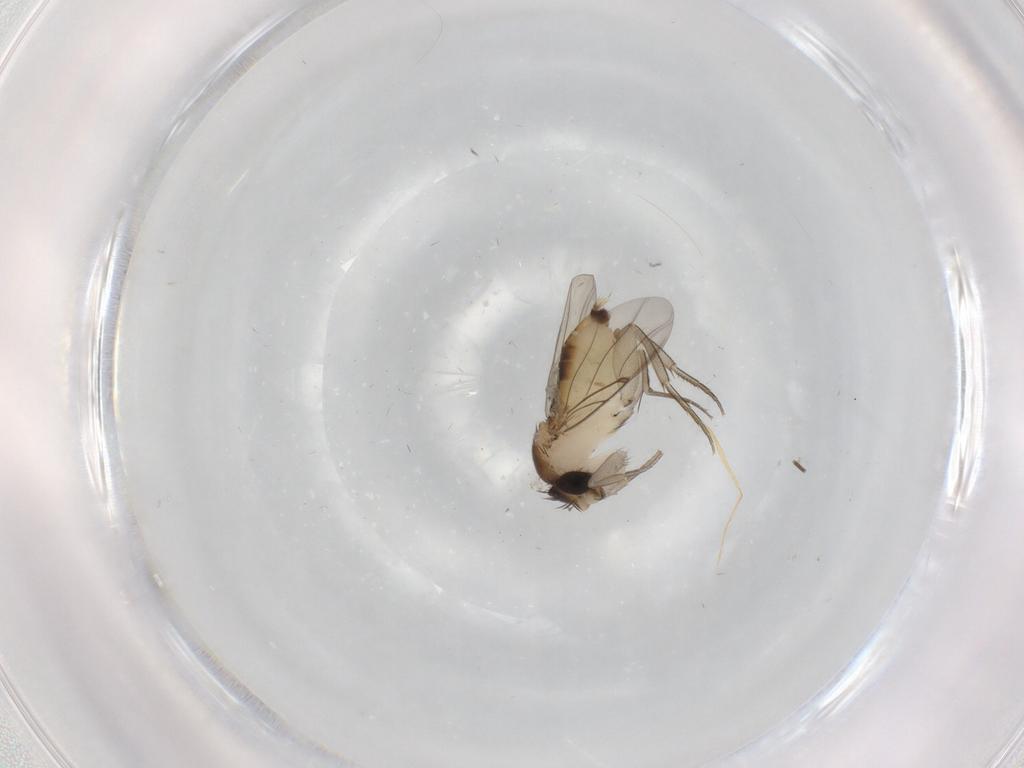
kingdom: Animalia
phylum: Arthropoda
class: Insecta
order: Diptera
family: Phoridae
